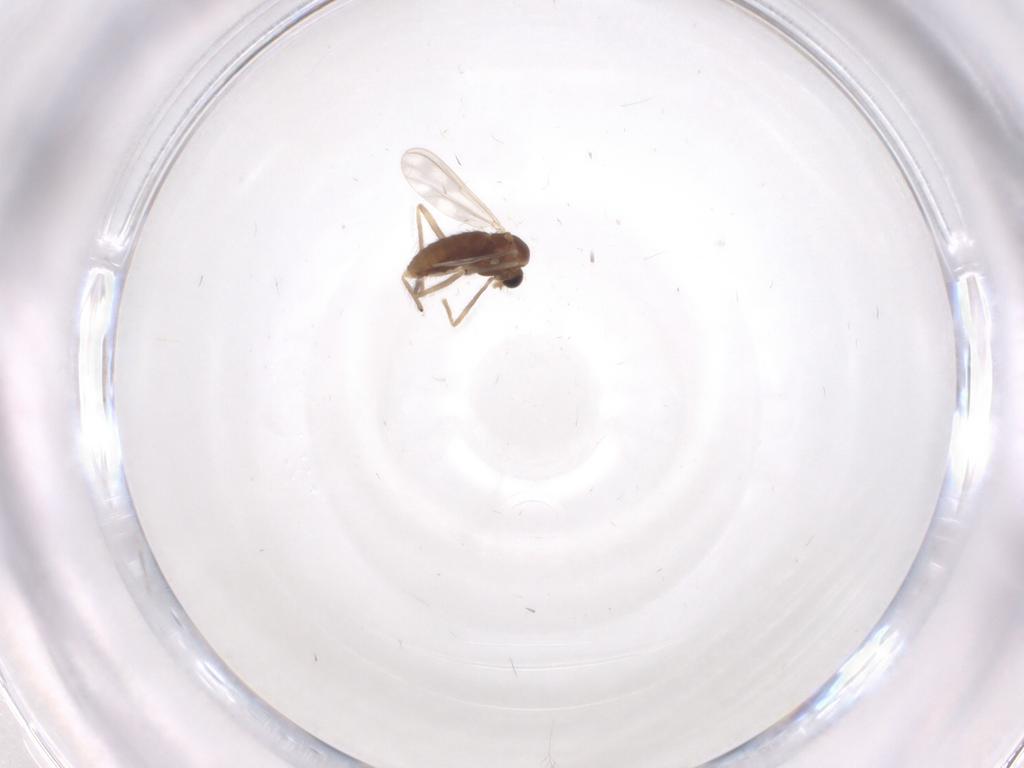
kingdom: Animalia
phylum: Arthropoda
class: Insecta
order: Diptera
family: Chironomidae
